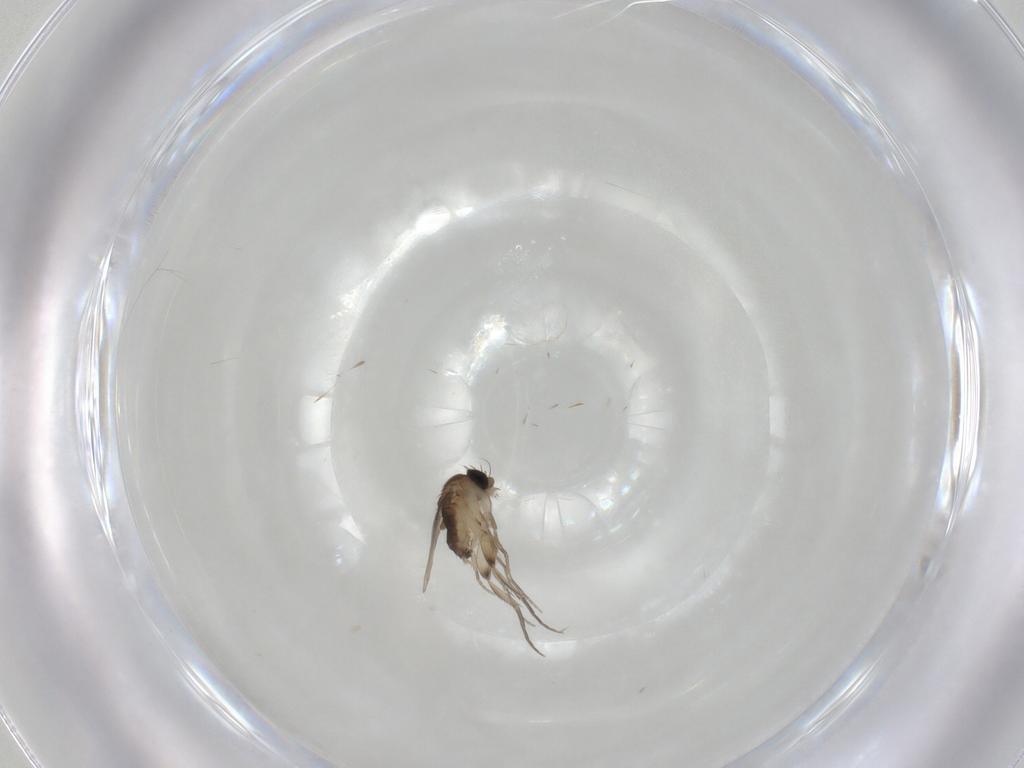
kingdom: Animalia
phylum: Arthropoda
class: Insecta
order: Diptera
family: Phoridae
